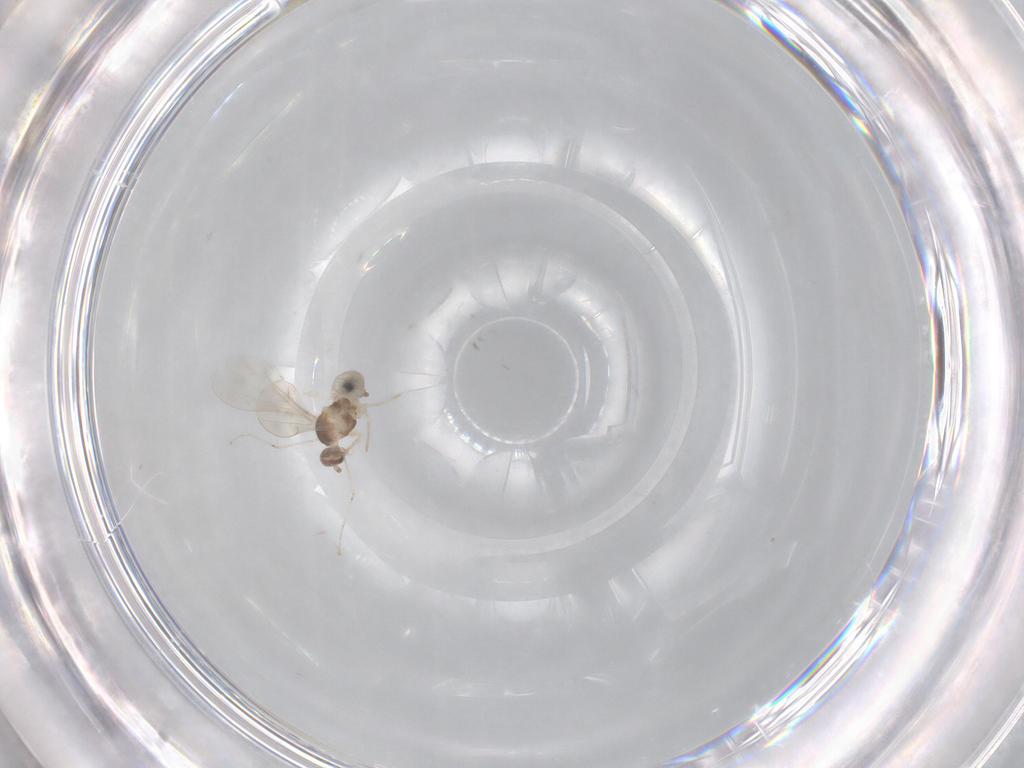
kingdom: Animalia
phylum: Arthropoda
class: Insecta
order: Diptera
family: Cecidomyiidae
